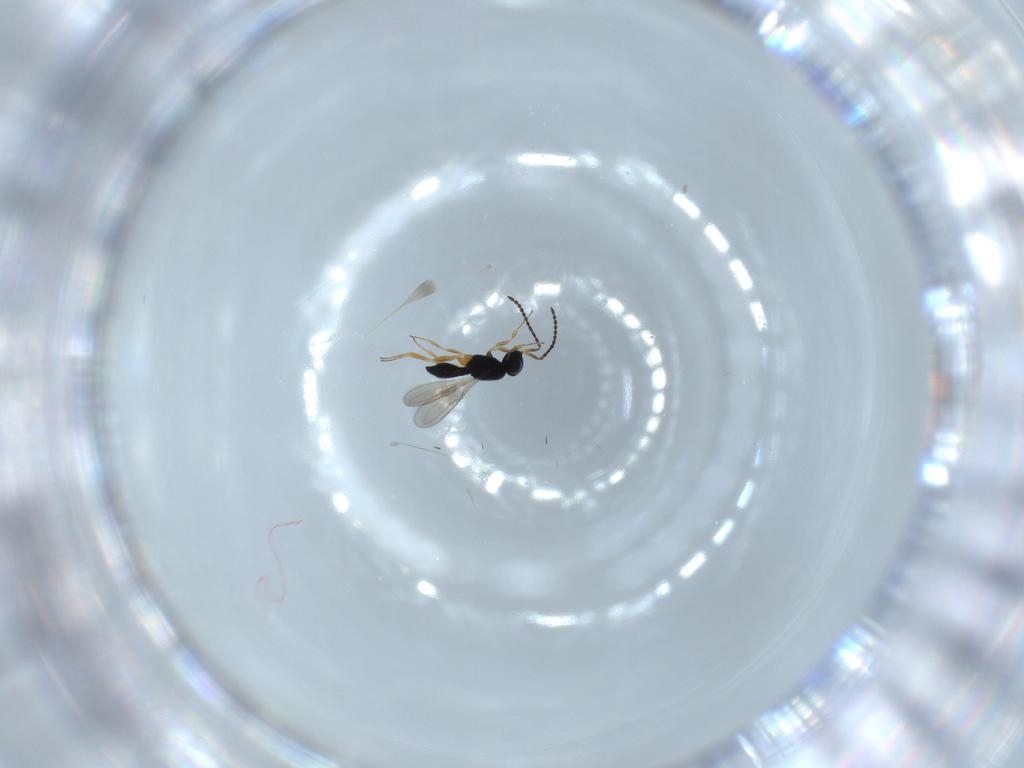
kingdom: Animalia
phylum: Arthropoda
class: Insecta
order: Hymenoptera
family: Scelionidae
